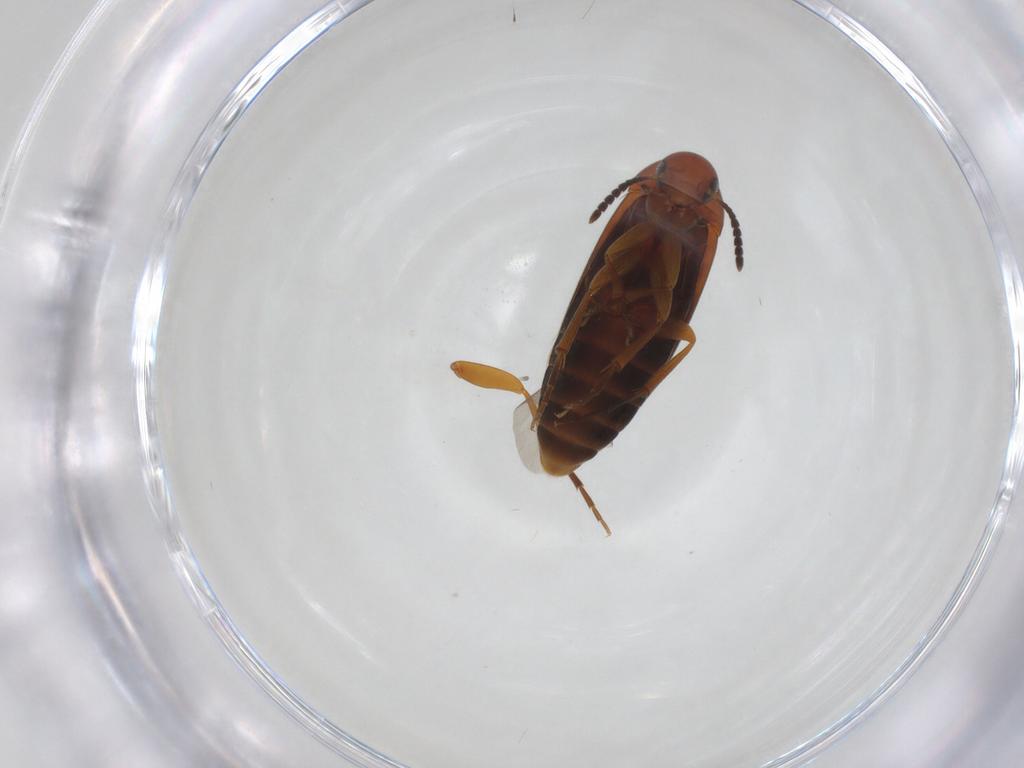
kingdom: Animalia
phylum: Arthropoda
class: Insecta
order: Coleoptera
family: Scraptiidae
